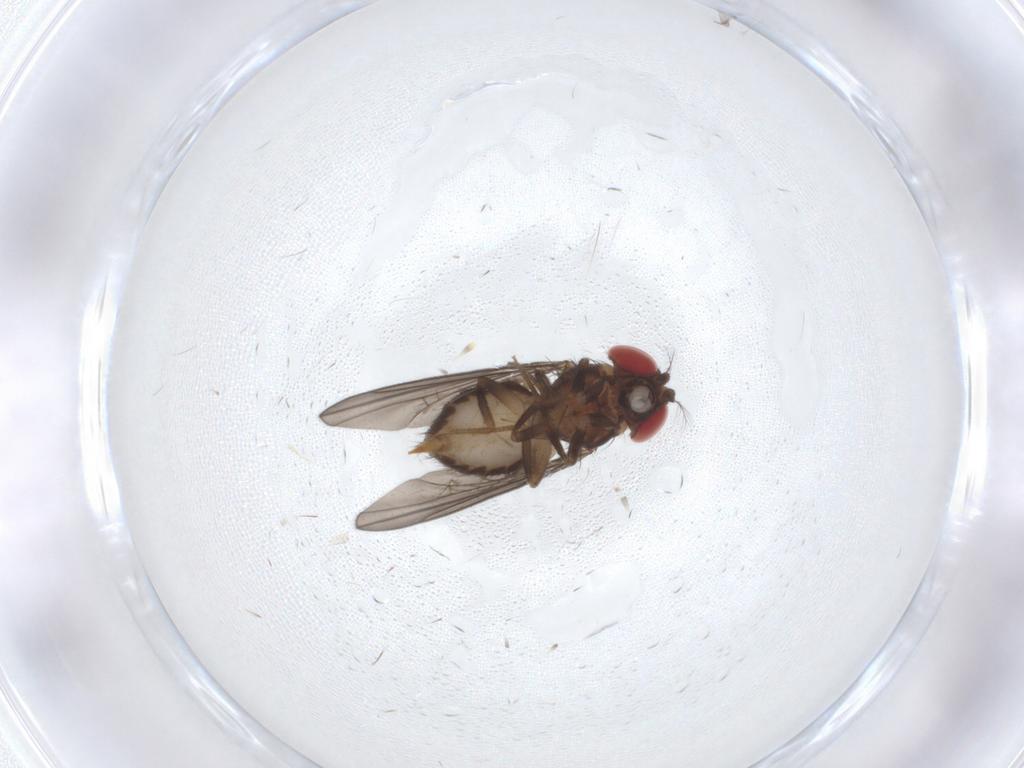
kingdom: Animalia
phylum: Arthropoda
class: Insecta
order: Diptera
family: Drosophilidae
